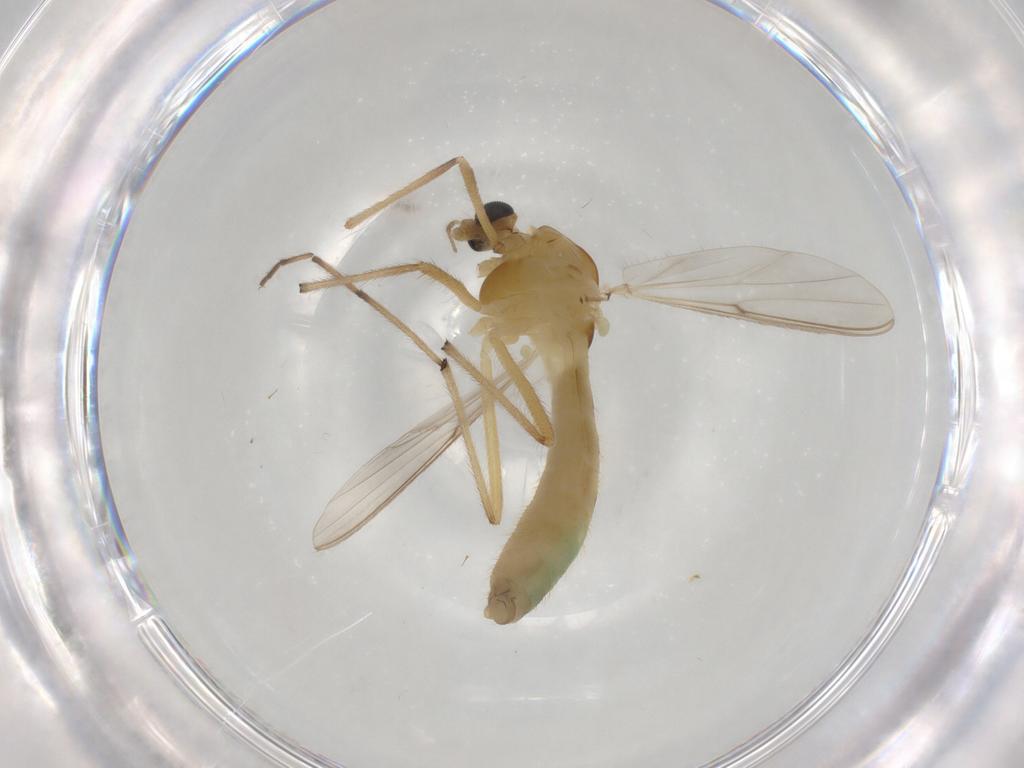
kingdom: Animalia
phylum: Arthropoda
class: Insecta
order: Diptera
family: Chironomidae
